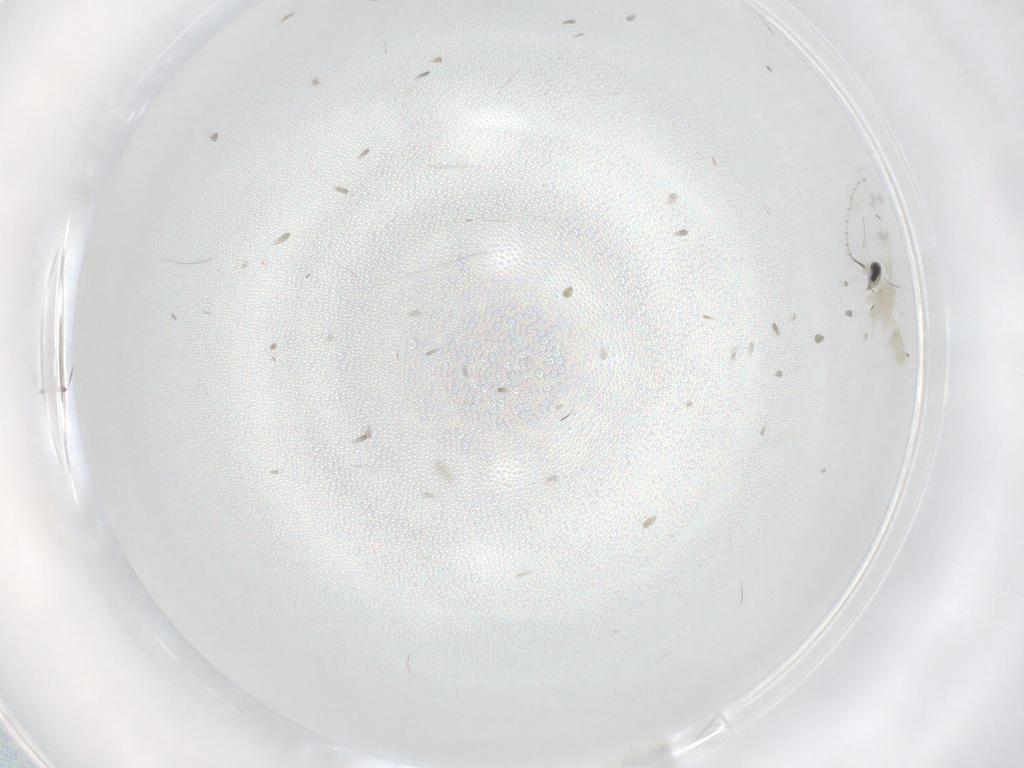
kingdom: Animalia
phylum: Arthropoda
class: Insecta
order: Diptera
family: Cecidomyiidae
